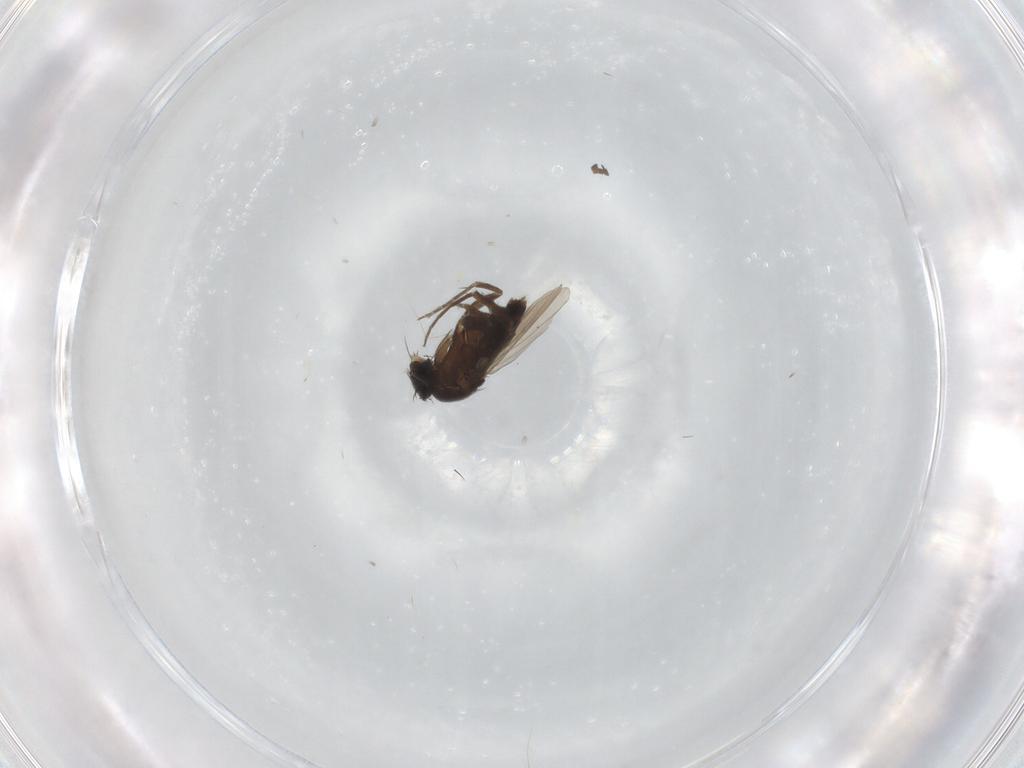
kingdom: Animalia
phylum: Arthropoda
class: Insecta
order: Diptera
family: Phoridae
